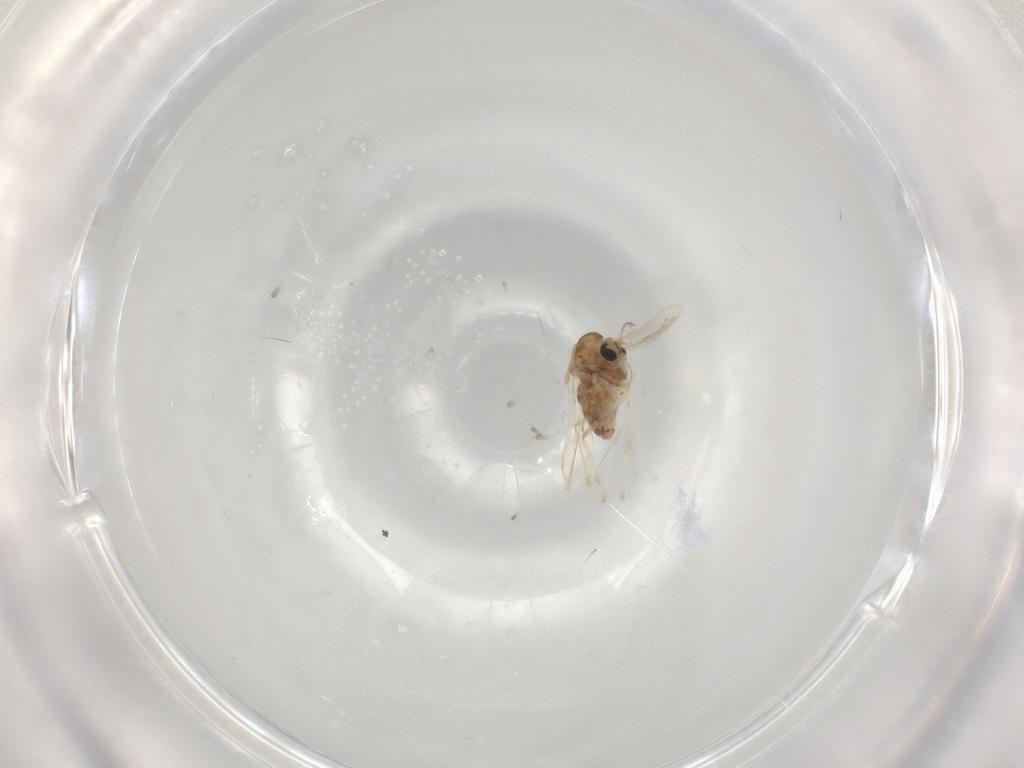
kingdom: Animalia
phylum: Arthropoda
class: Insecta
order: Diptera
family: Chironomidae
